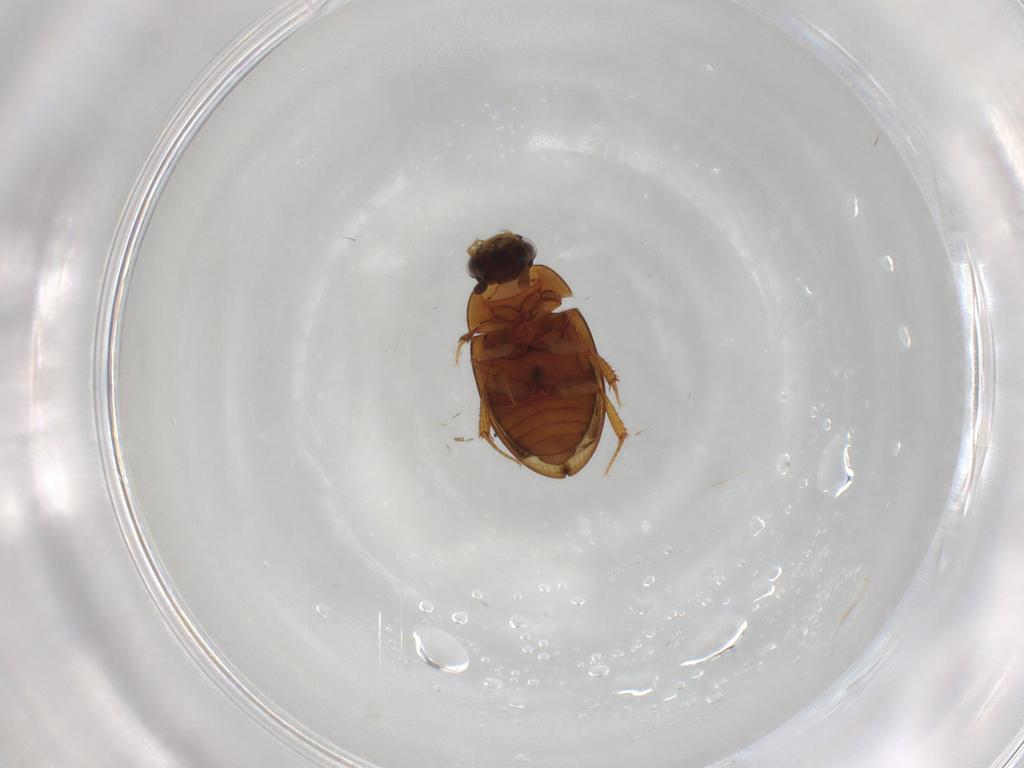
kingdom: Animalia
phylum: Arthropoda
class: Insecta
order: Coleoptera
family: Hydrophilidae
